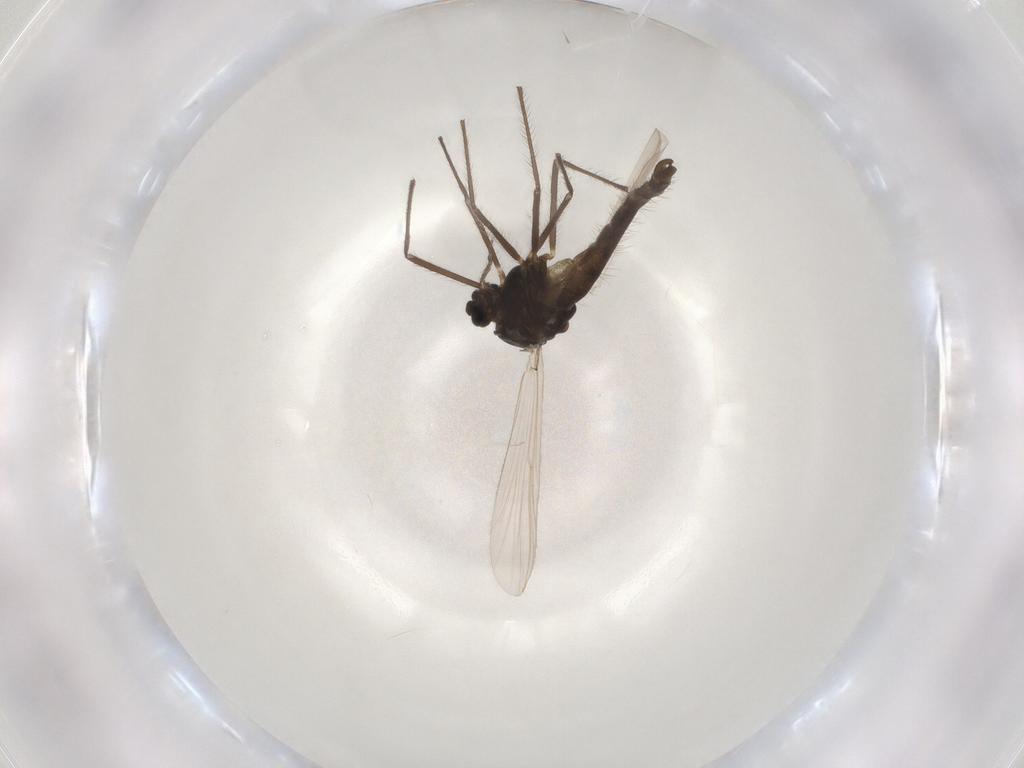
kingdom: Animalia
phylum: Arthropoda
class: Insecta
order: Diptera
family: Chironomidae
